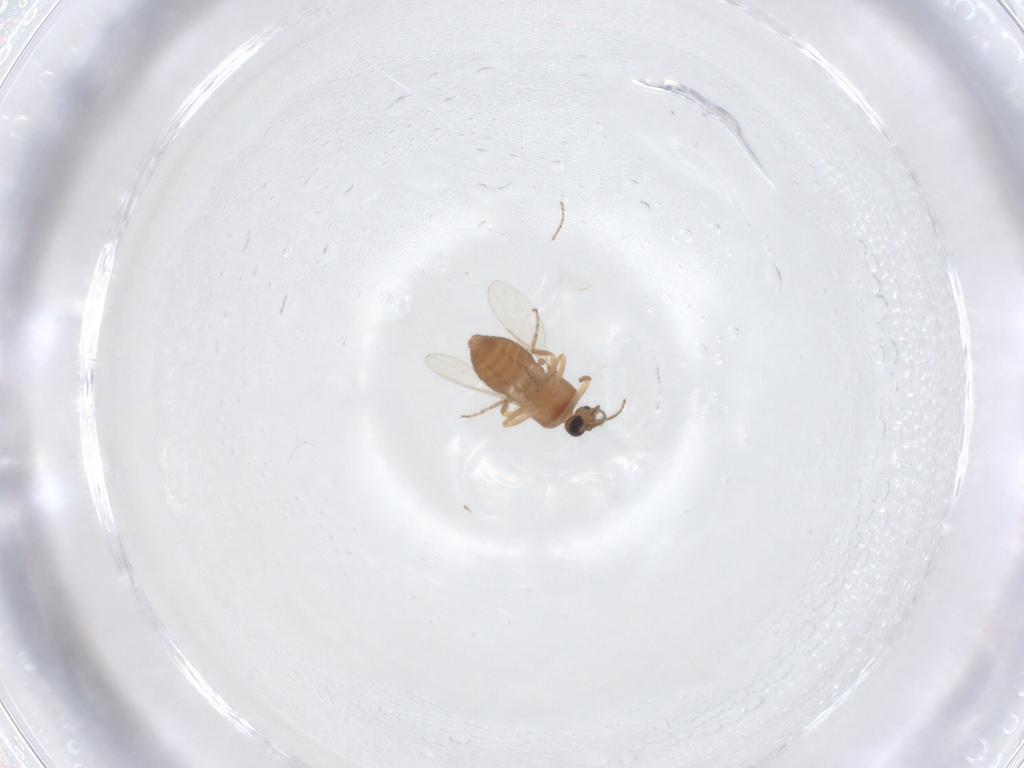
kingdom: Animalia
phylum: Arthropoda
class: Insecta
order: Diptera
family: Ceratopogonidae
